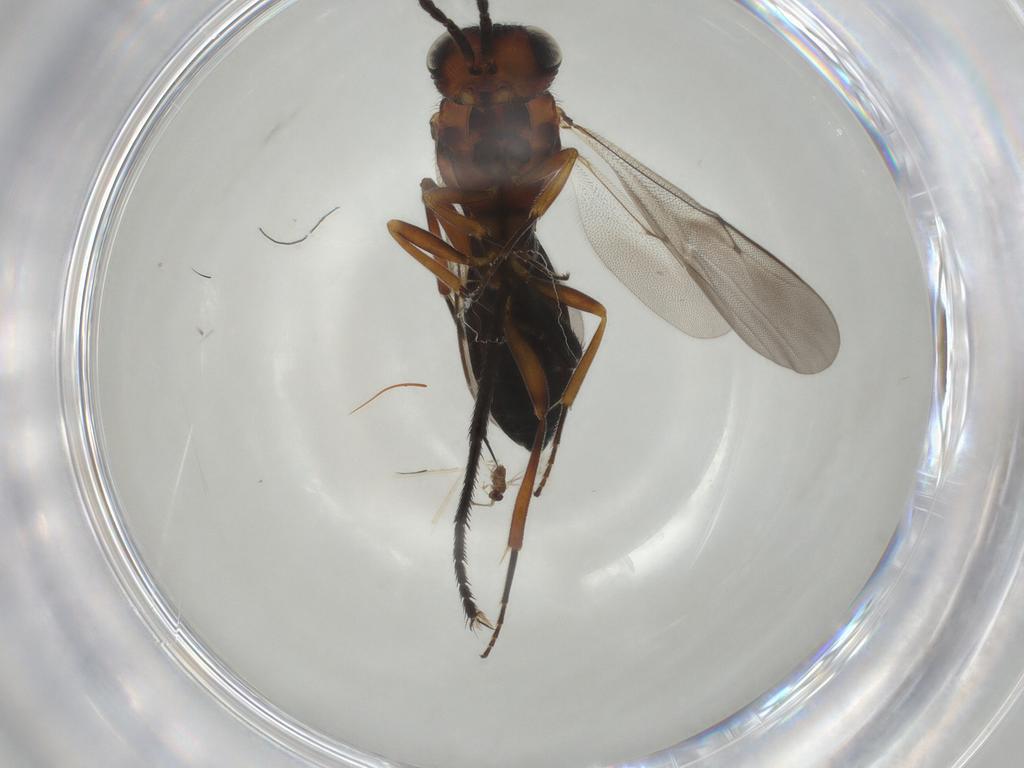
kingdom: Animalia
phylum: Arthropoda
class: Insecta
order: Diptera
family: Muscidae
